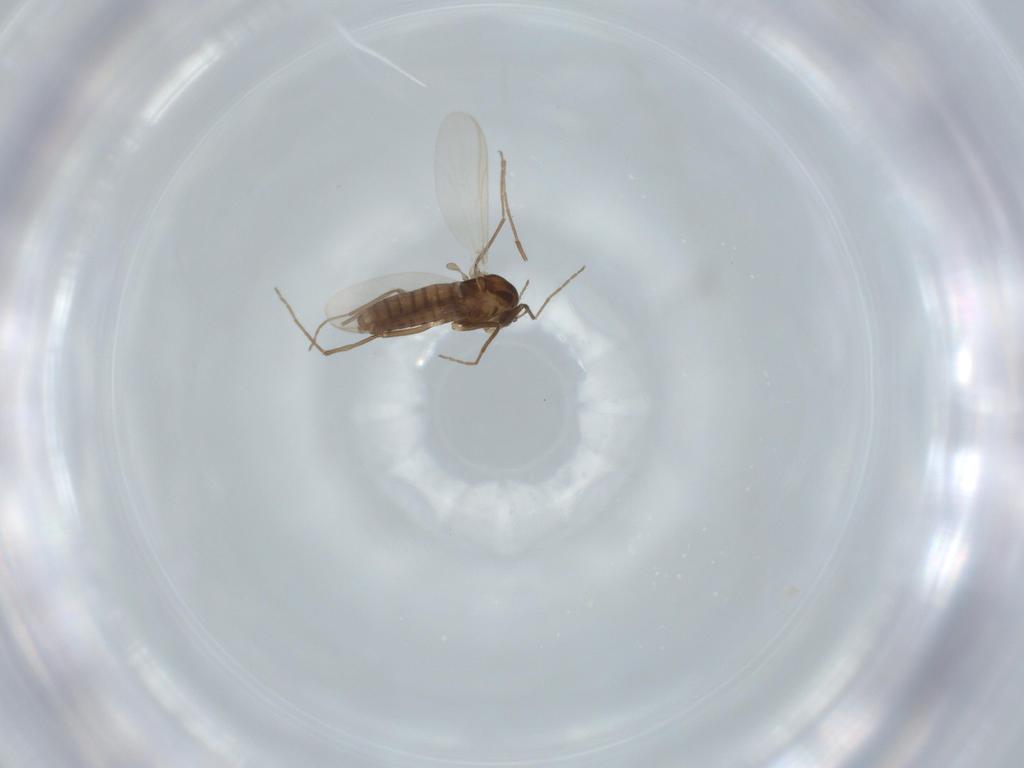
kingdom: Animalia
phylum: Arthropoda
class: Insecta
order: Diptera
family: Chironomidae
